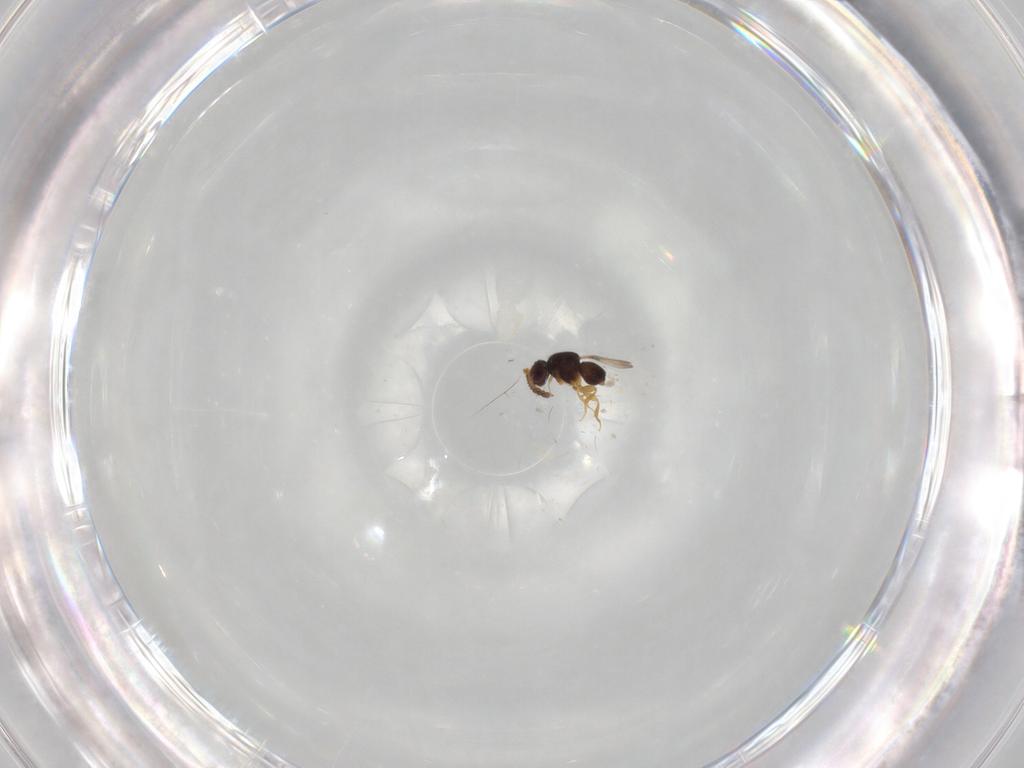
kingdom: Animalia
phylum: Arthropoda
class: Insecta
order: Hymenoptera
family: Ceraphronidae
